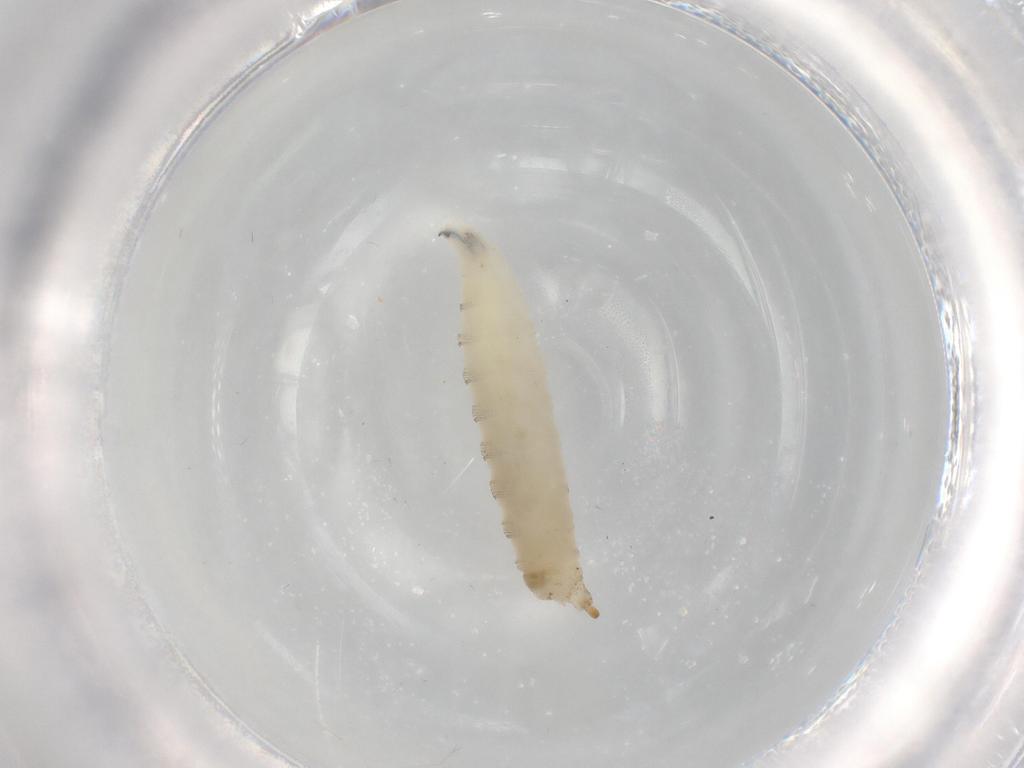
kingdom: Animalia
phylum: Arthropoda
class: Insecta
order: Diptera
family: Drosophilidae
